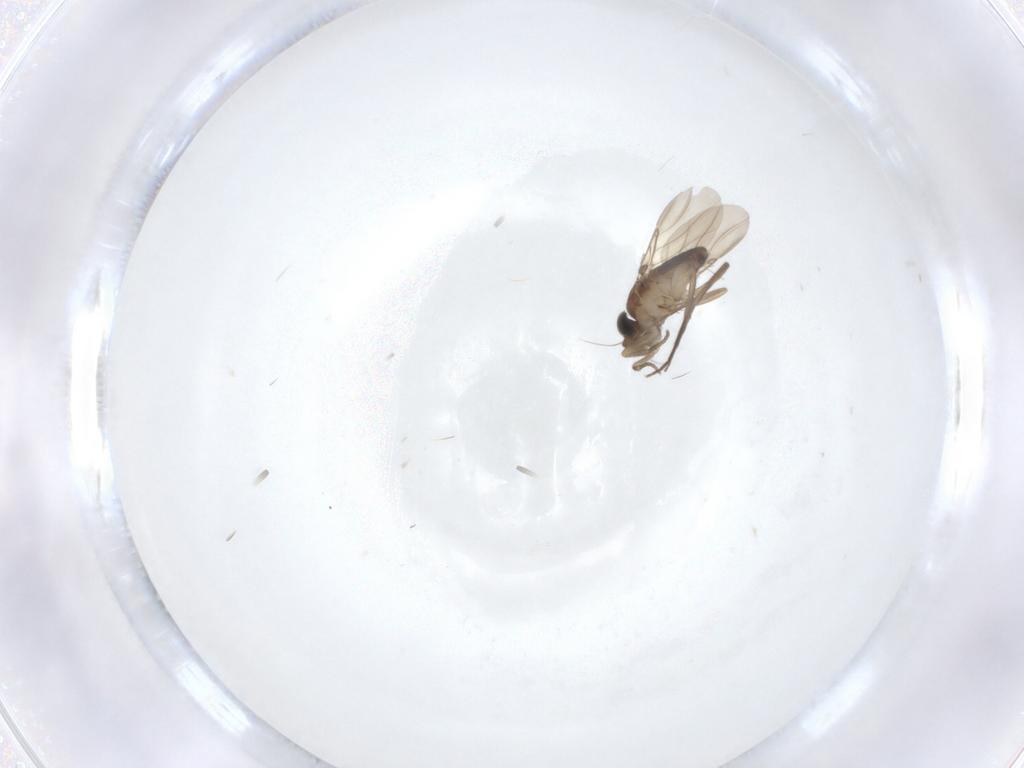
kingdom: Animalia
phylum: Arthropoda
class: Insecta
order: Diptera
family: Phoridae
